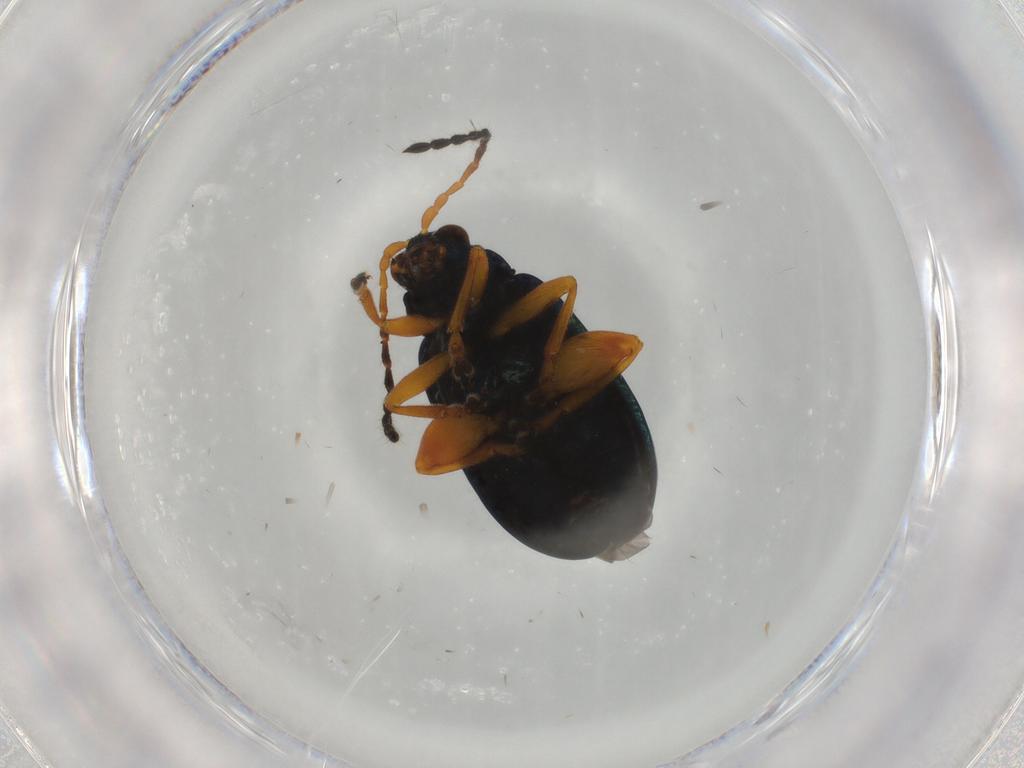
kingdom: Animalia
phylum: Arthropoda
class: Insecta
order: Coleoptera
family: Chrysomelidae
